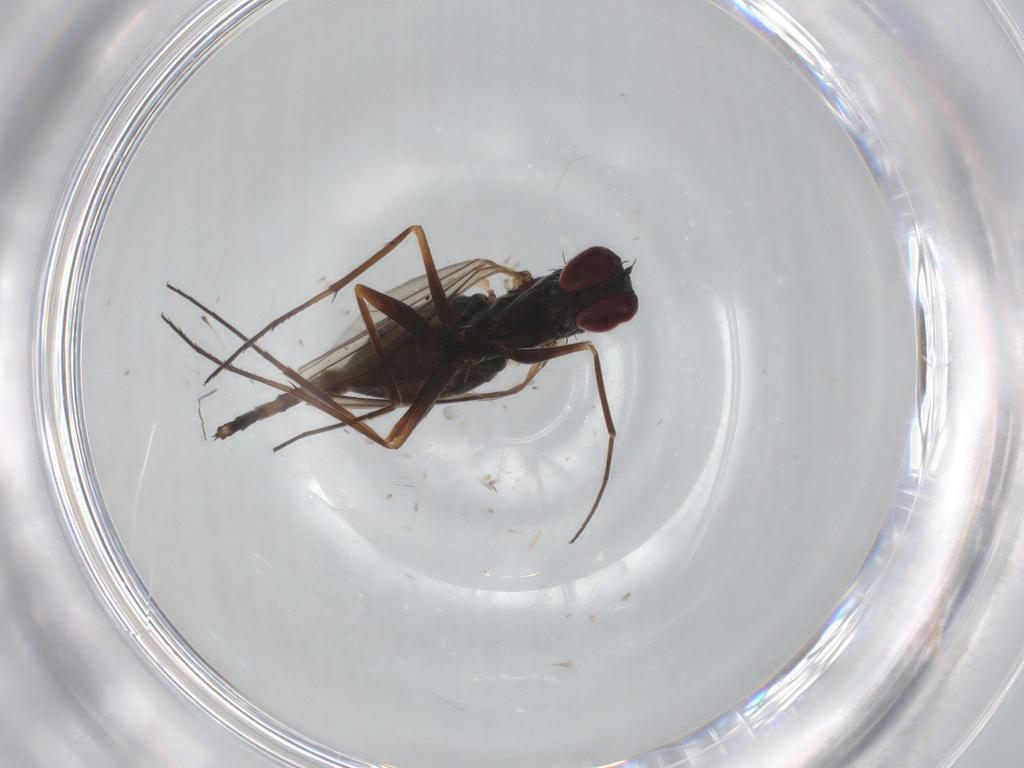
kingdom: Animalia
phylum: Arthropoda
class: Insecta
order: Diptera
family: Dolichopodidae
